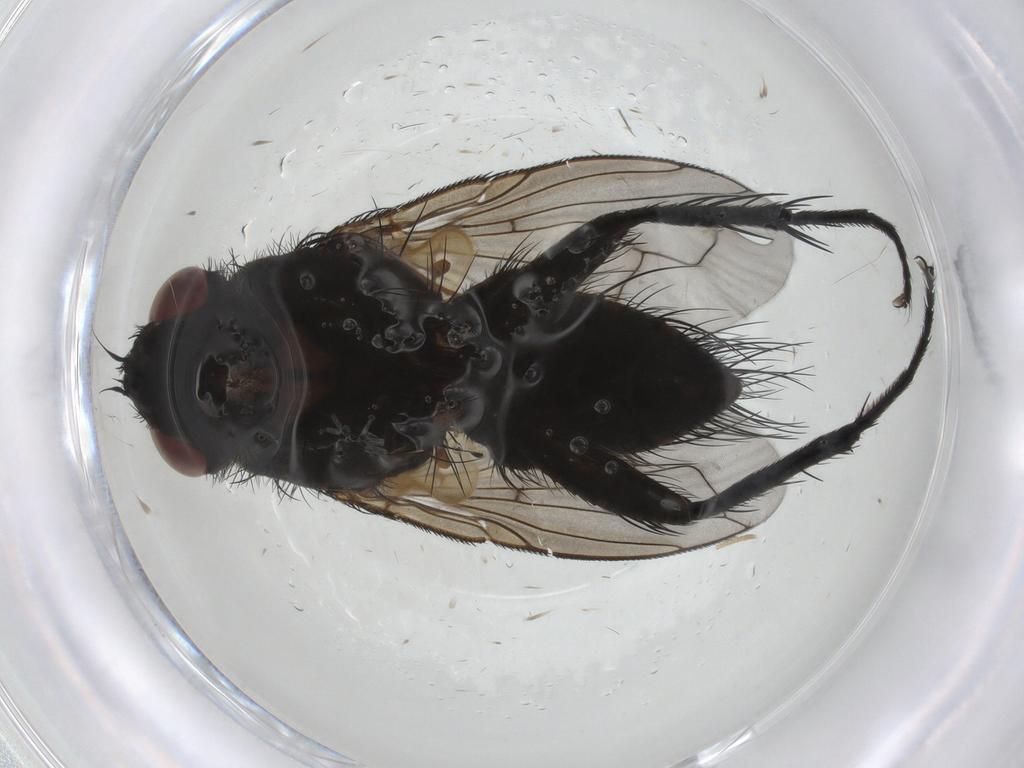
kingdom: Animalia
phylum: Arthropoda
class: Insecta
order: Diptera
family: Tachinidae
